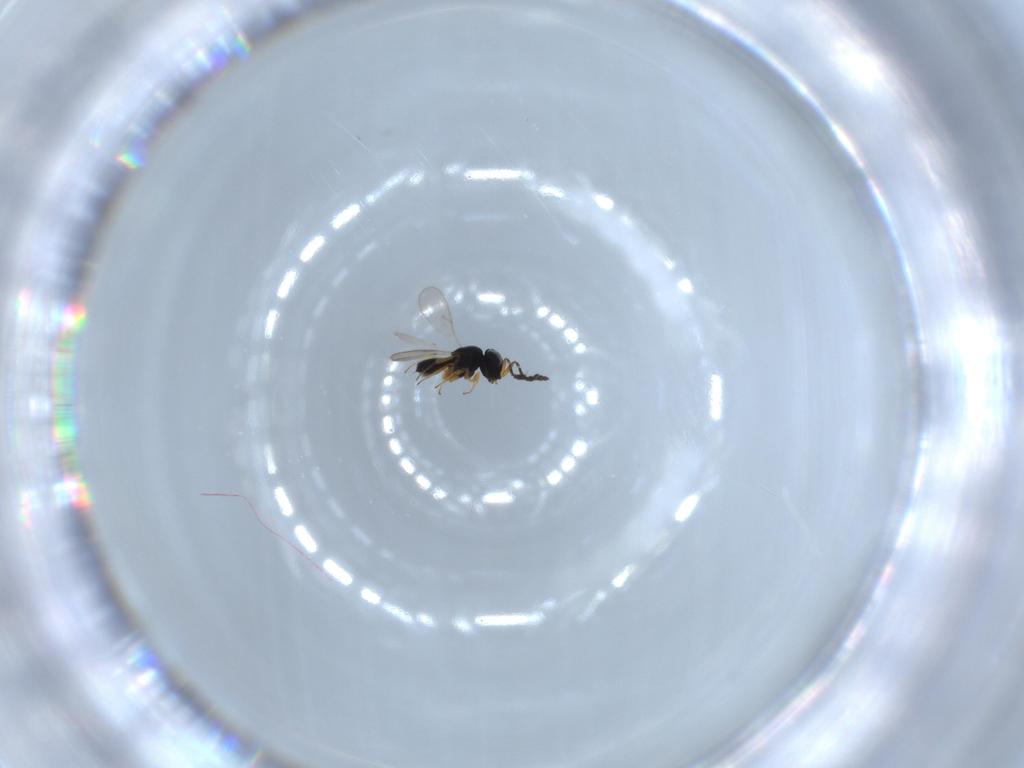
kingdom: Animalia
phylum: Arthropoda
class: Insecta
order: Hymenoptera
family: Scelionidae
